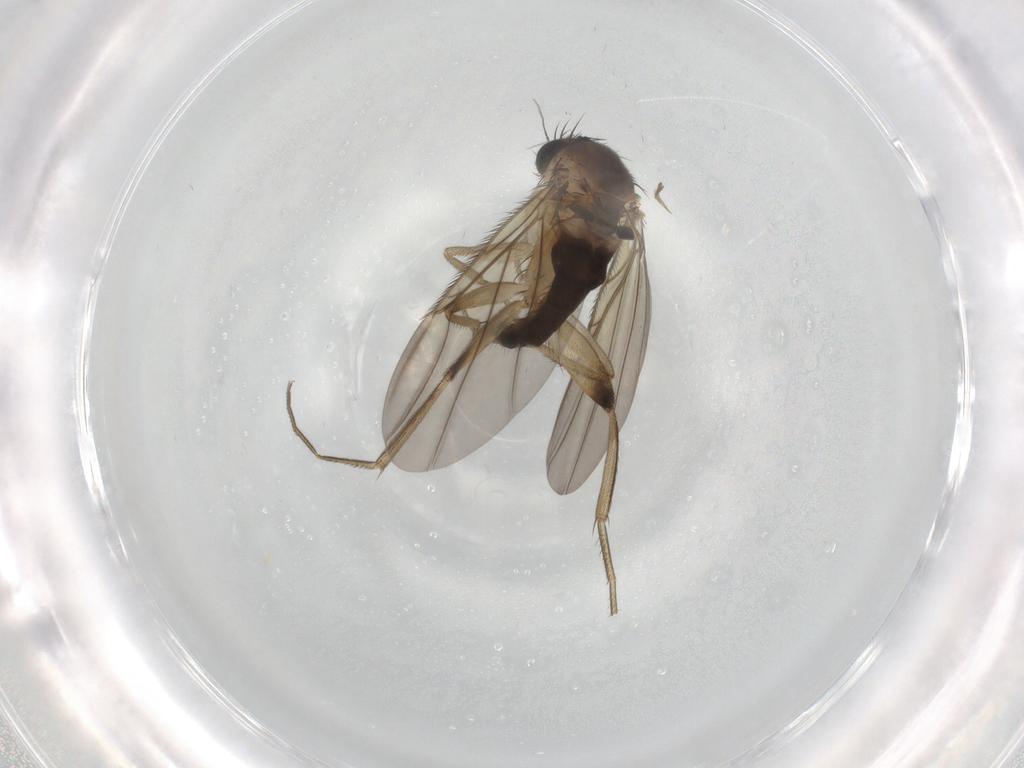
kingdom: Animalia
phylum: Arthropoda
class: Insecta
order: Diptera
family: Phoridae
